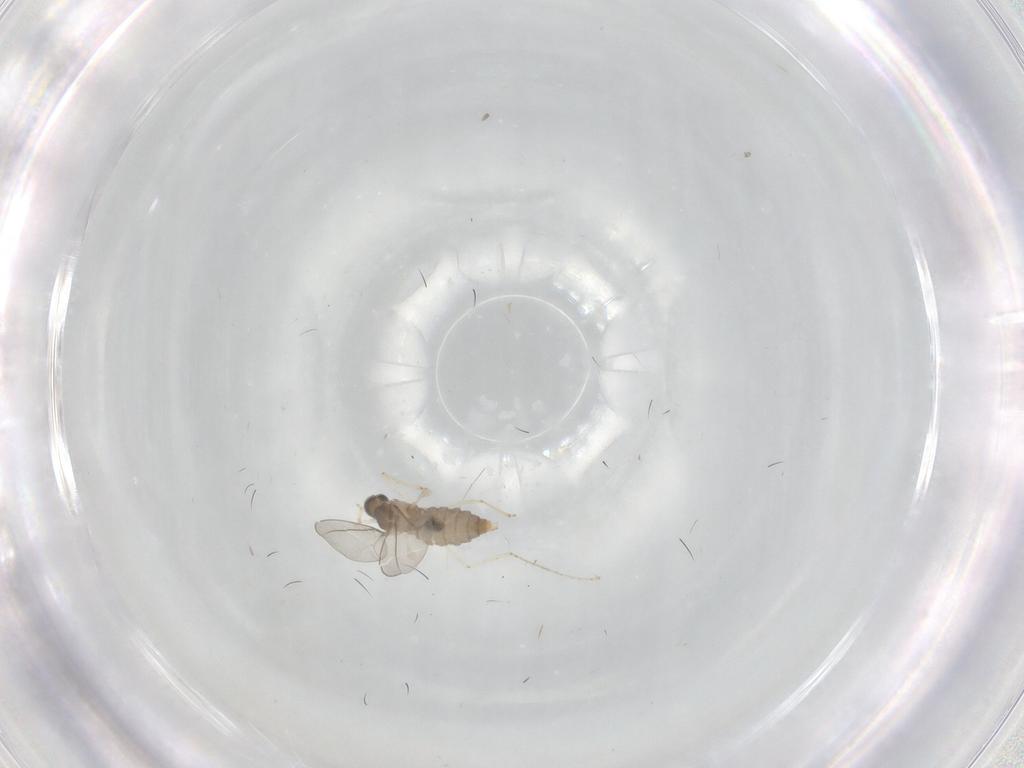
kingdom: Animalia
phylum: Arthropoda
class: Insecta
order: Diptera
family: Cecidomyiidae
